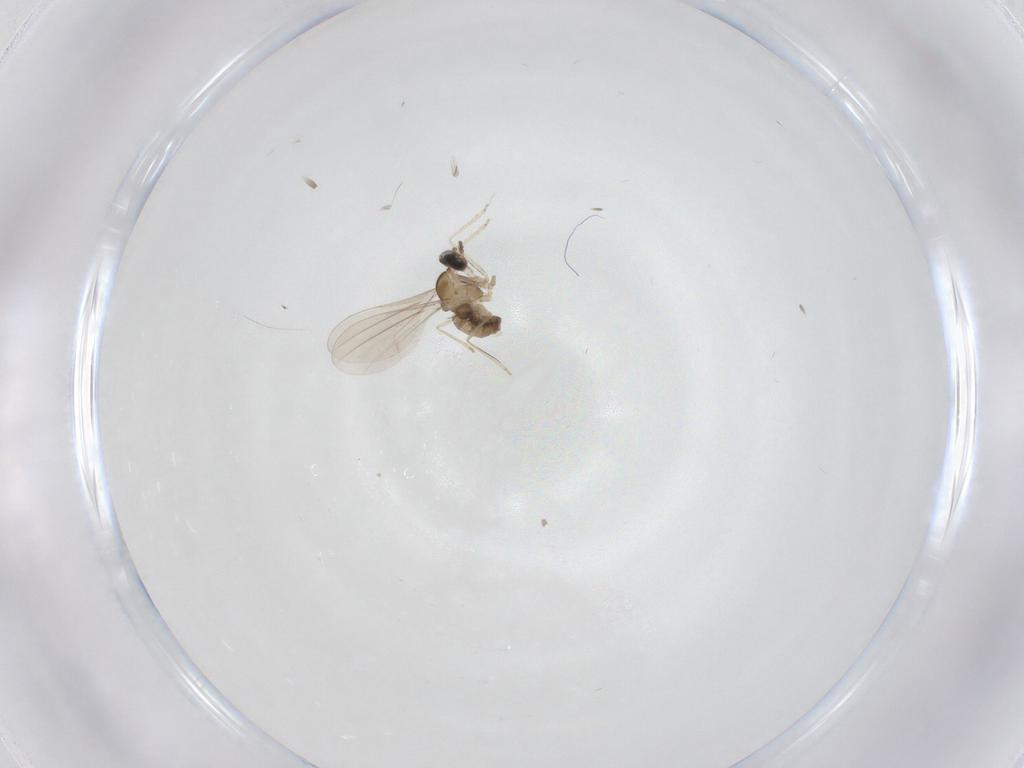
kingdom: Animalia
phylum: Arthropoda
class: Insecta
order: Diptera
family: Cecidomyiidae
